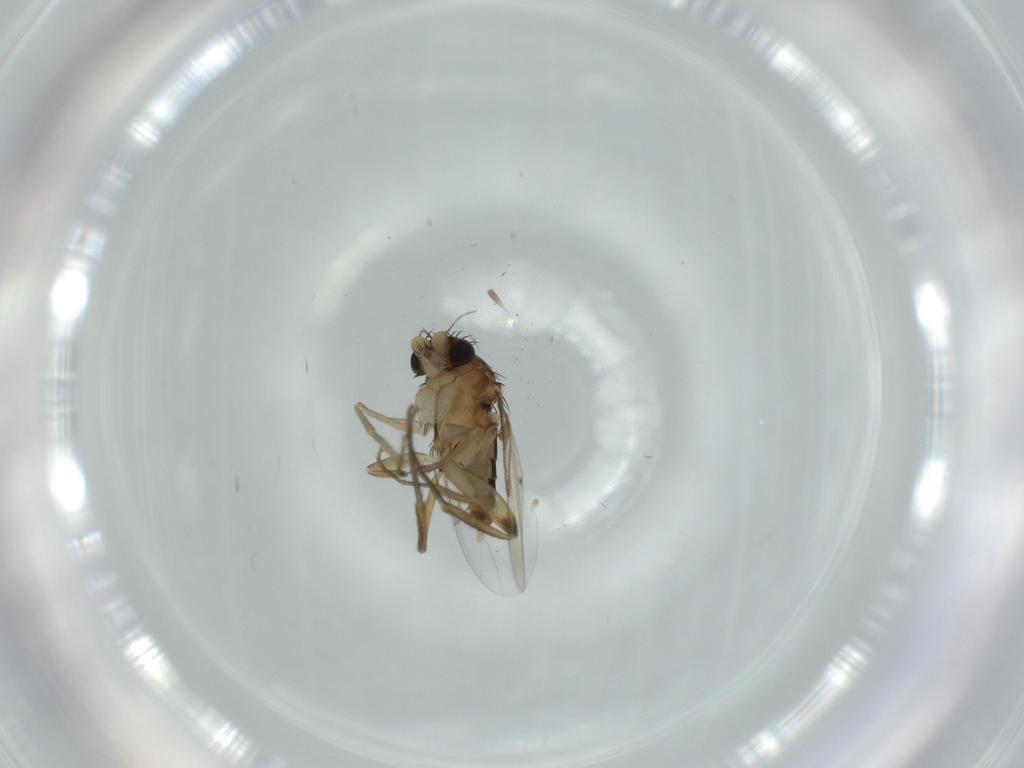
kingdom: Animalia
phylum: Arthropoda
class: Insecta
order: Diptera
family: Phoridae
